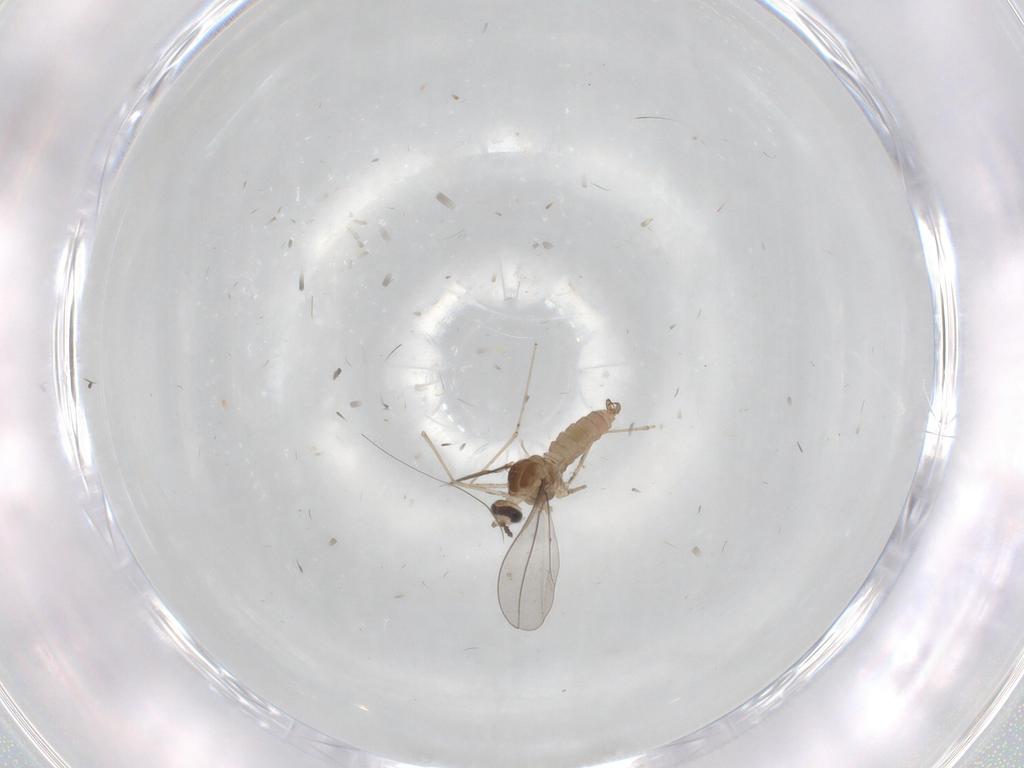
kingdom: Animalia
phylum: Arthropoda
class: Insecta
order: Diptera
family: Cecidomyiidae
